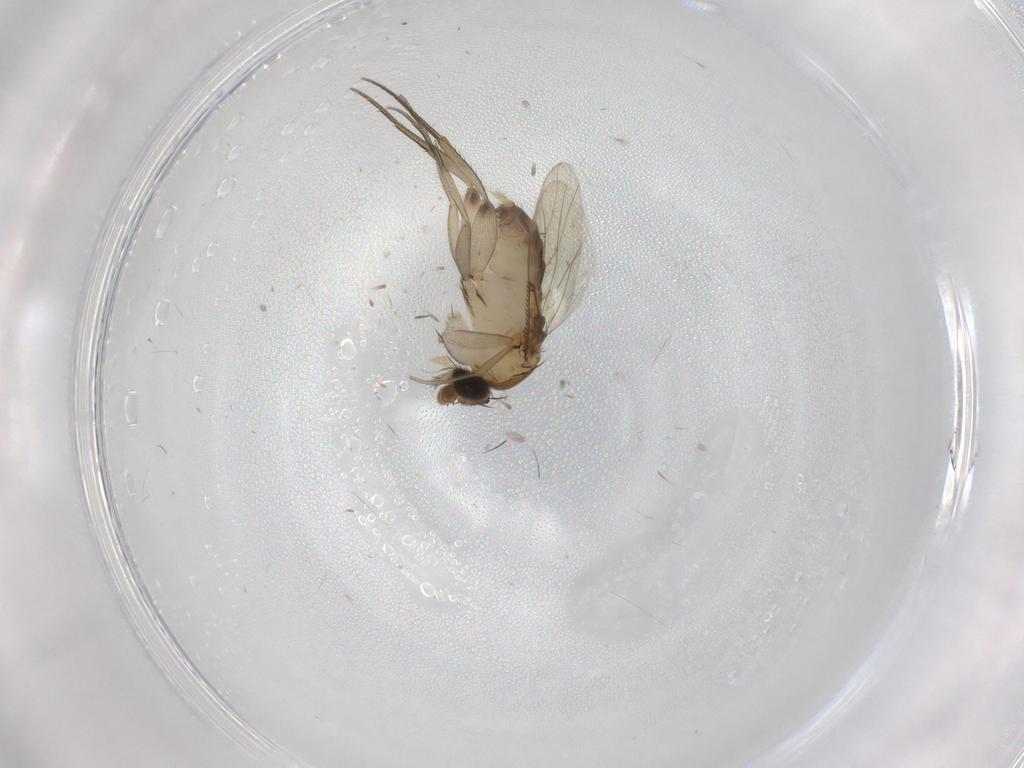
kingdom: Animalia
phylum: Arthropoda
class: Insecta
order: Diptera
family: Phoridae
